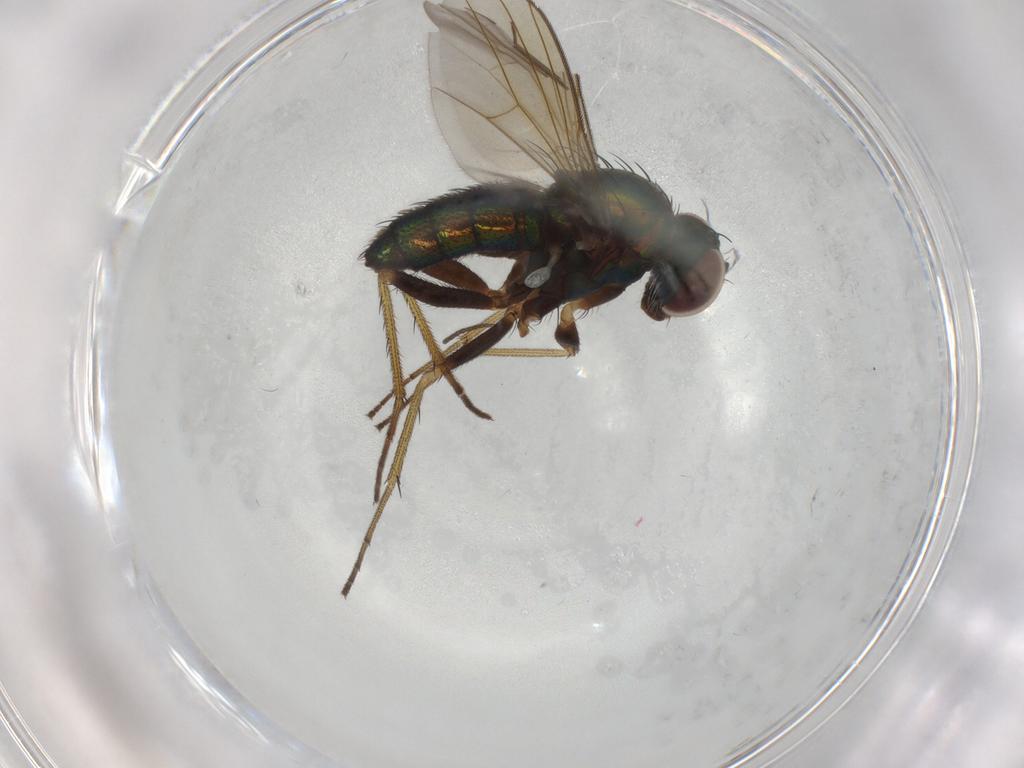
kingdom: Animalia
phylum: Arthropoda
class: Insecta
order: Diptera
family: Dolichopodidae
